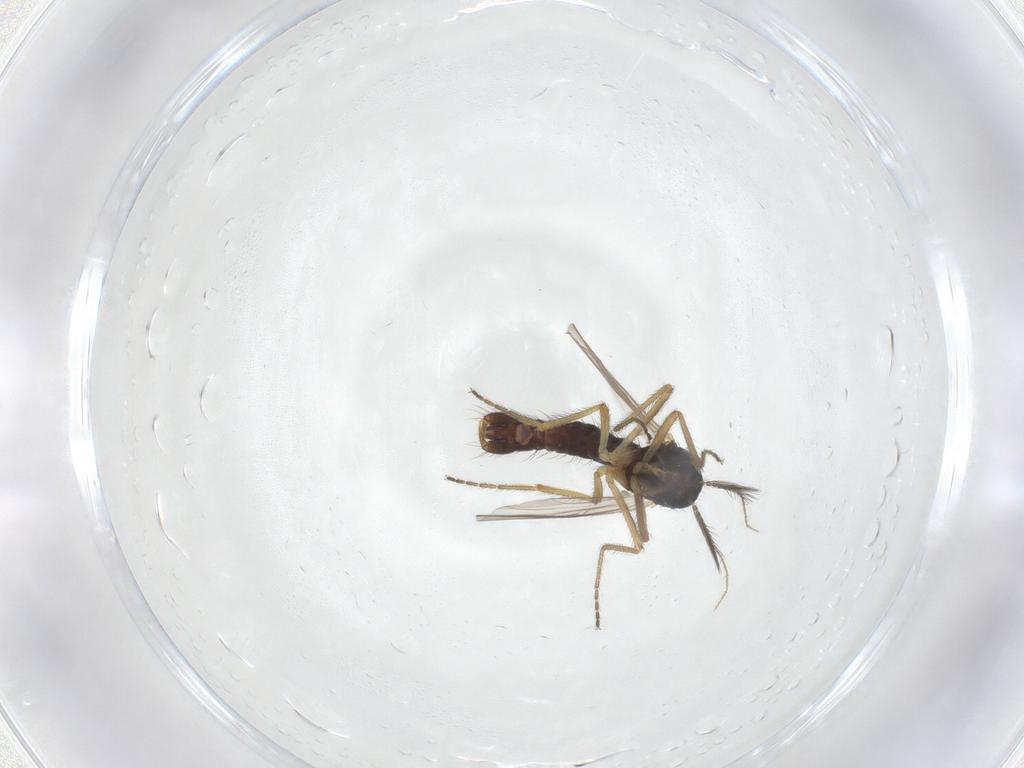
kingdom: Animalia
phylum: Arthropoda
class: Insecta
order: Diptera
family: Ceratopogonidae
